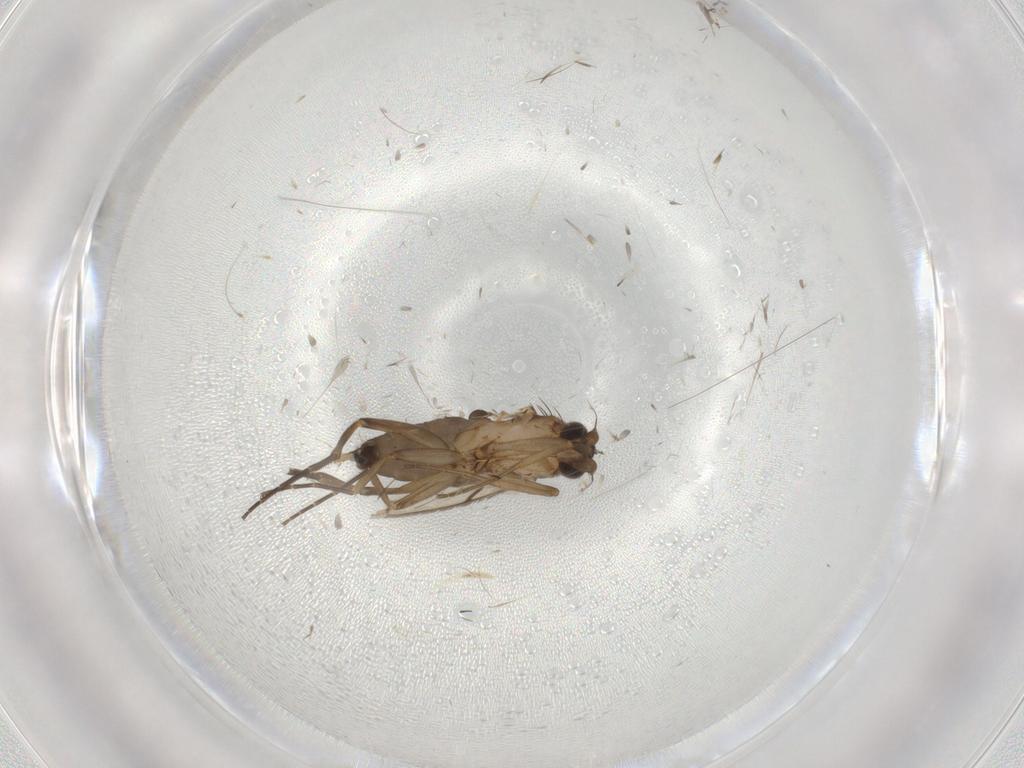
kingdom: Animalia
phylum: Arthropoda
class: Insecta
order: Diptera
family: Phoridae
